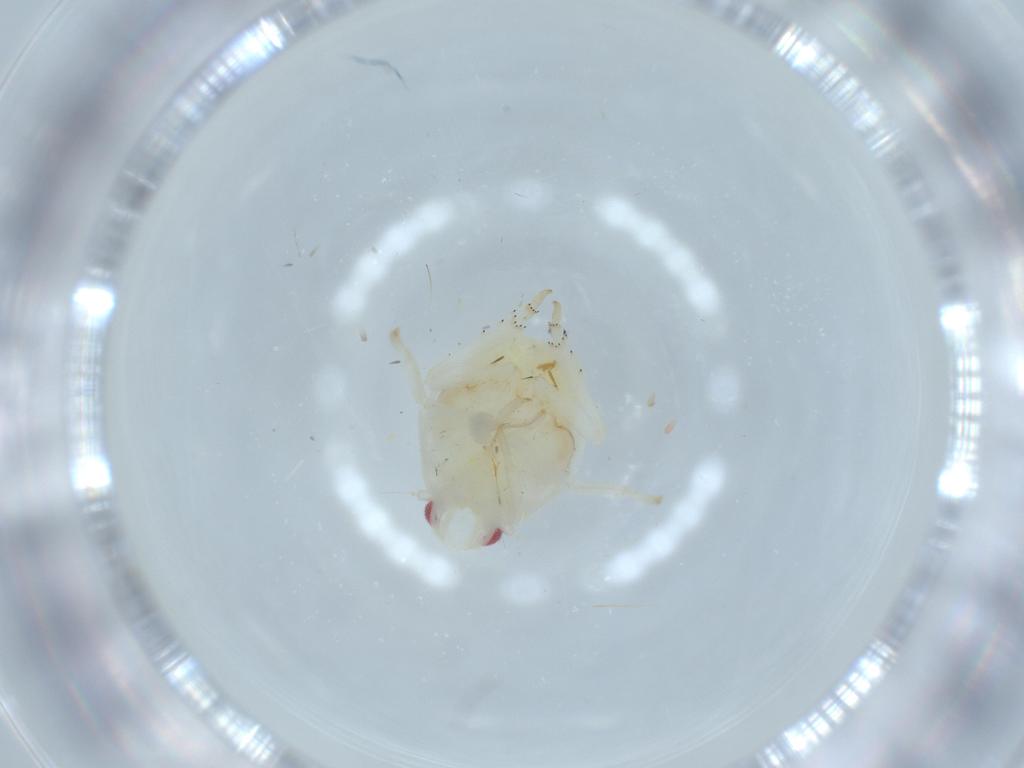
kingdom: Animalia
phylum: Arthropoda
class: Insecta
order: Hemiptera
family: Flatidae
